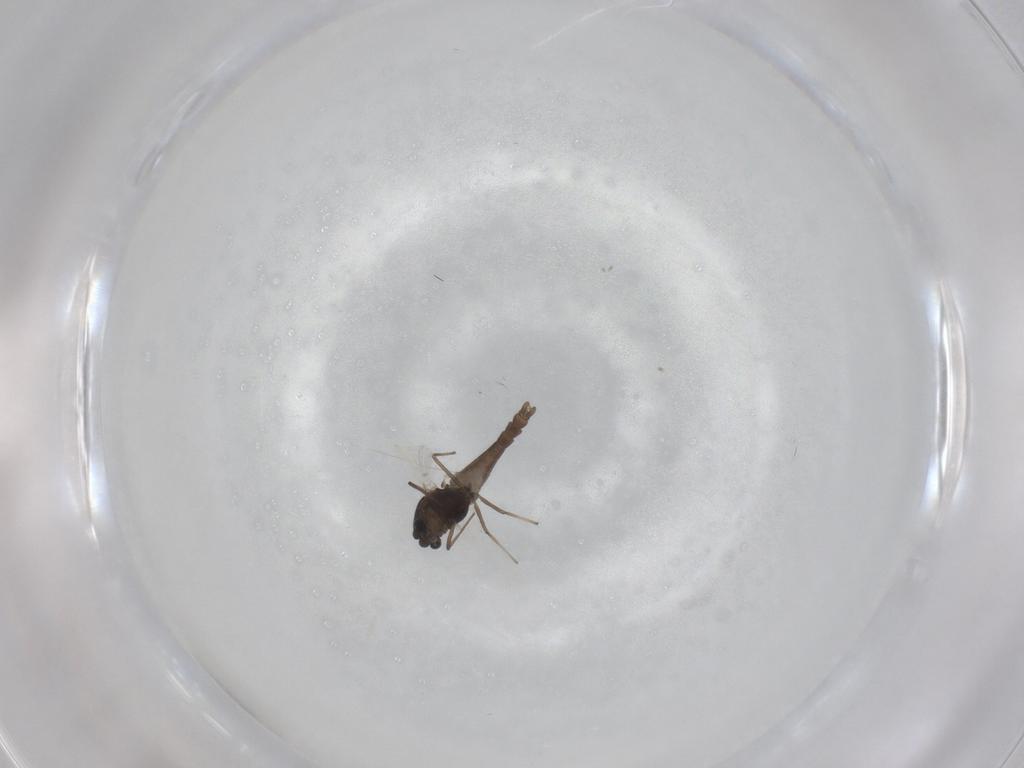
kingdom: Animalia
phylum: Arthropoda
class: Insecta
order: Diptera
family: Chironomidae
